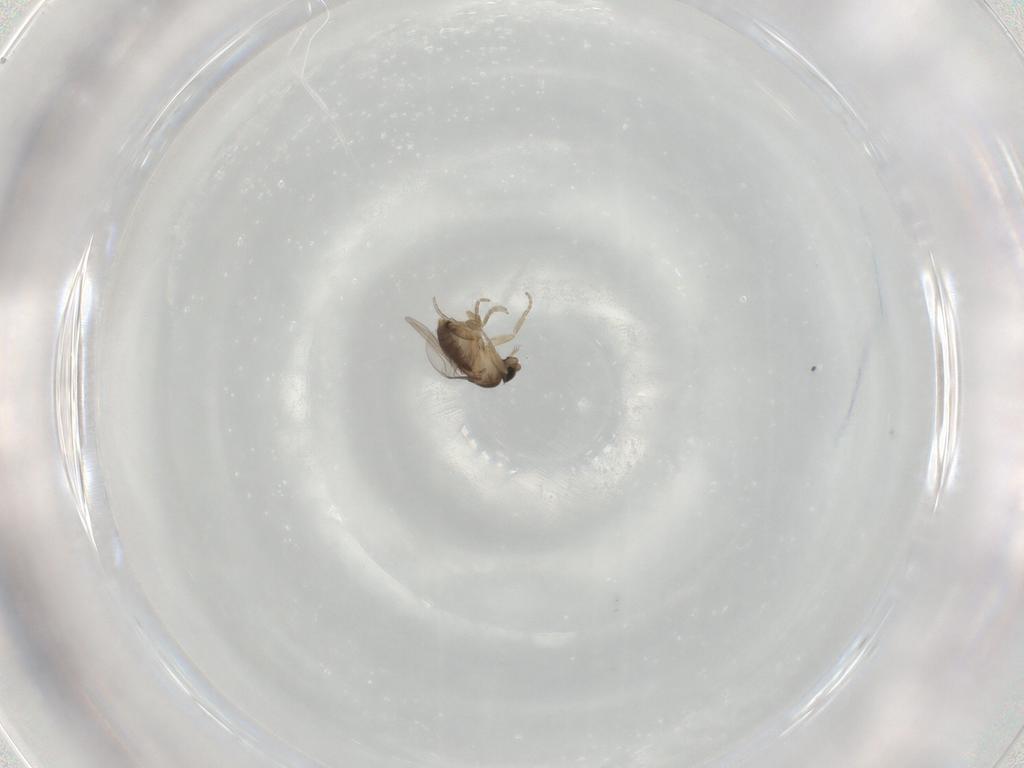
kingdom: Animalia
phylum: Arthropoda
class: Insecta
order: Diptera
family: Phoridae
